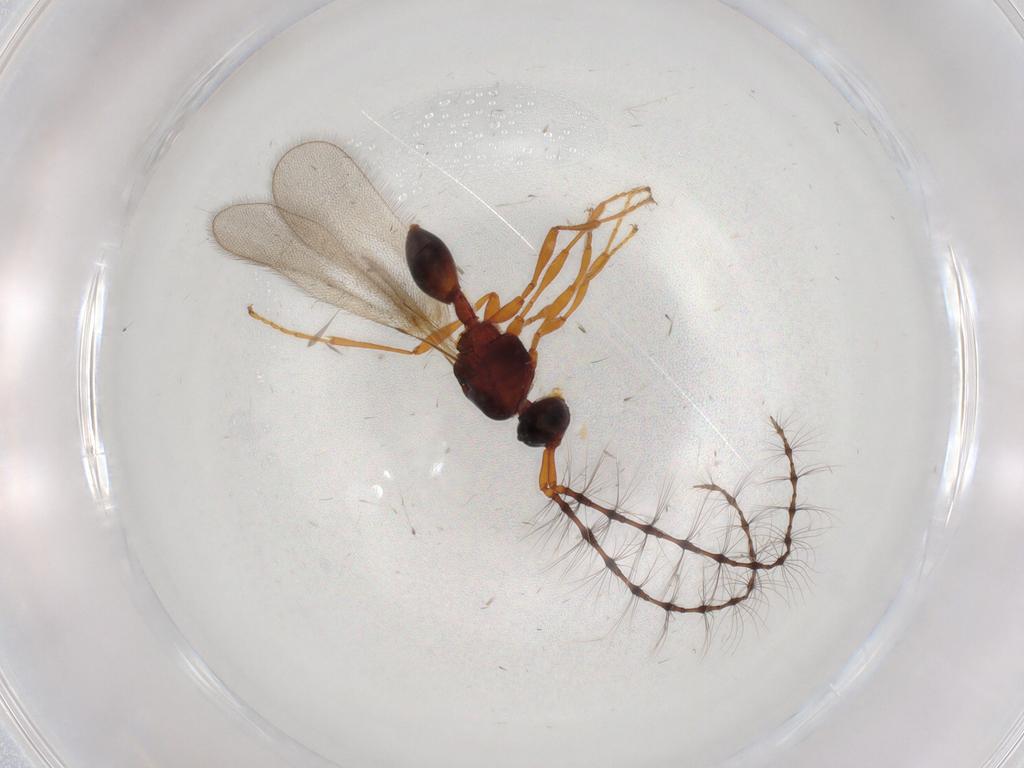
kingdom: Animalia
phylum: Arthropoda
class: Insecta
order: Hymenoptera
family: Diapriidae
